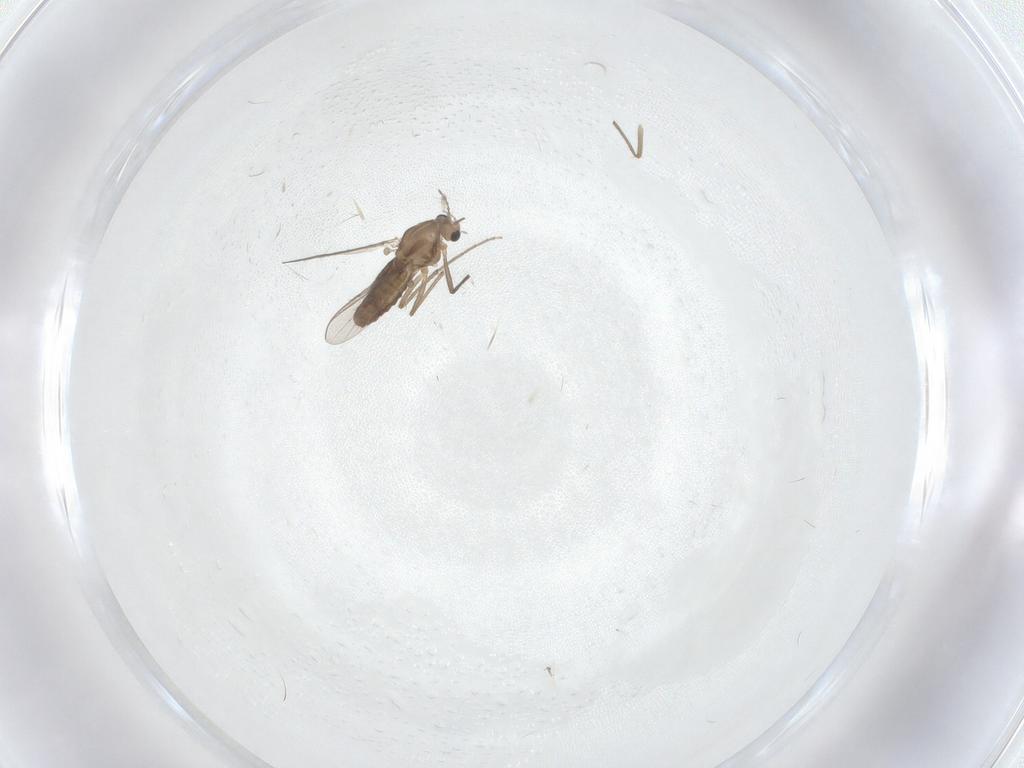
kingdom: Animalia
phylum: Arthropoda
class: Insecta
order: Diptera
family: Chironomidae
